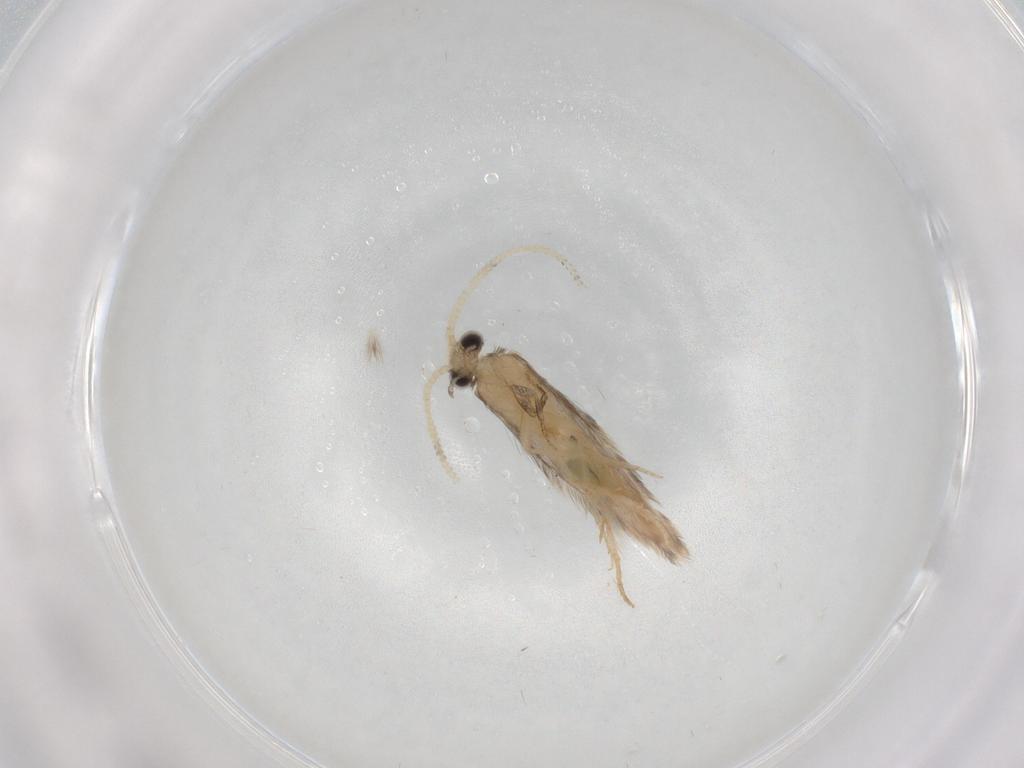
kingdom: Animalia
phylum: Arthropoda
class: Insecta
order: Trichoptera
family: Hydroptilidae
